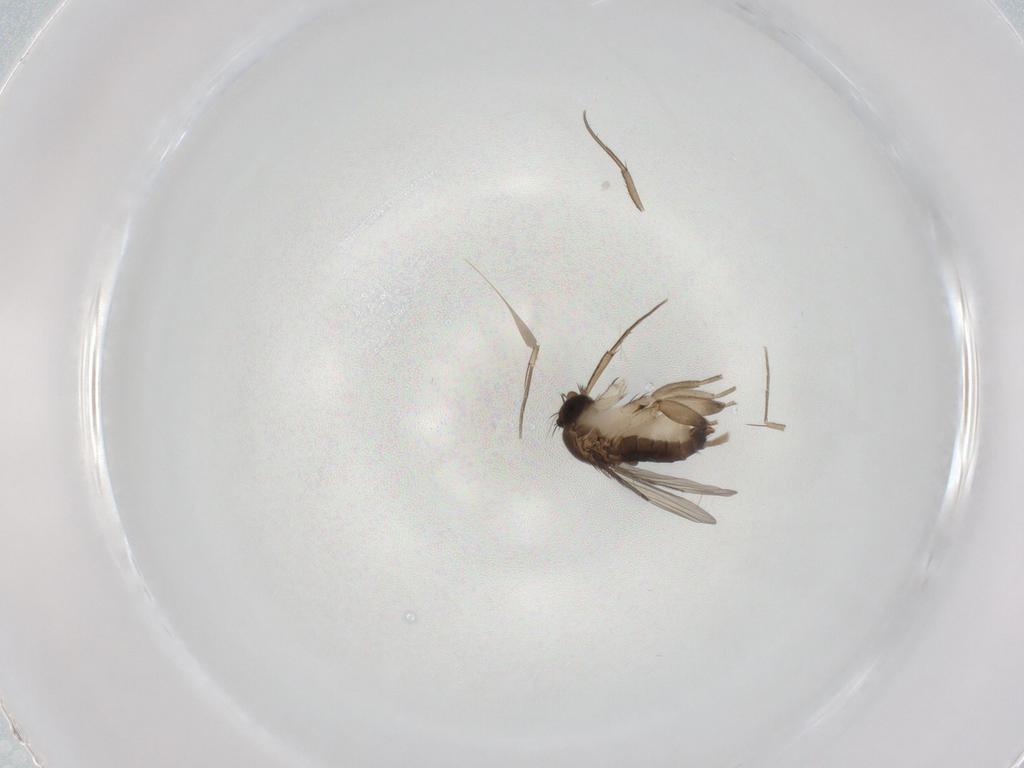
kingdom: Animalia
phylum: Arthropoda
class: Insecta
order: Diptera
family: Phoridae
